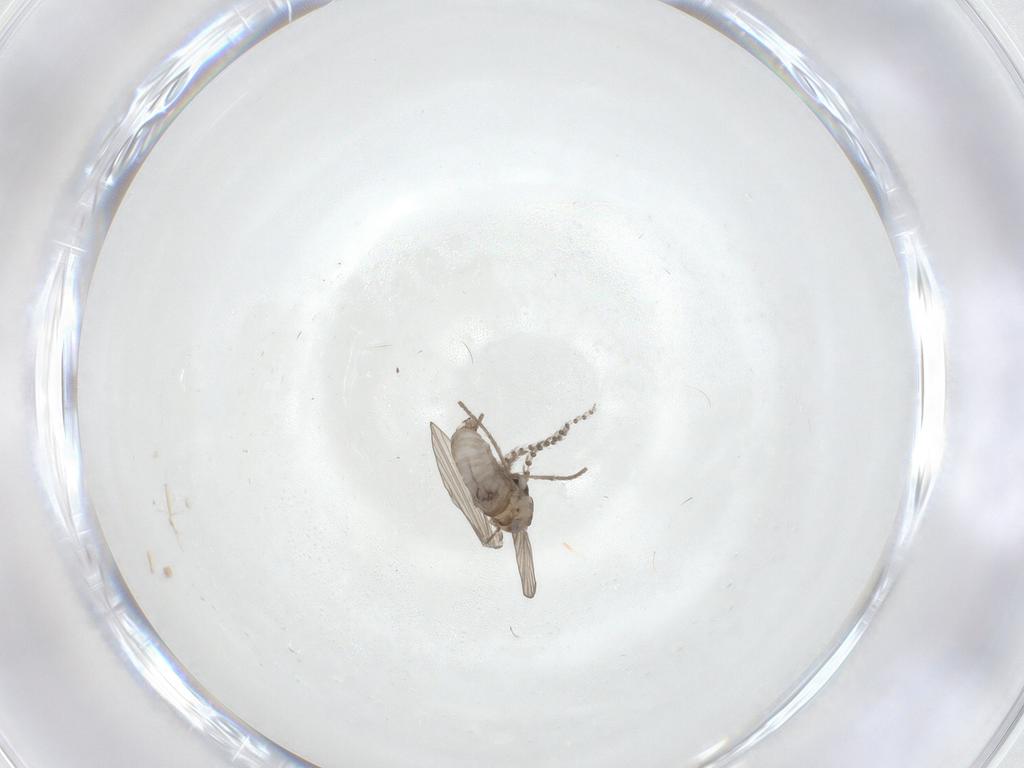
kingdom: Animalia
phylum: Arthropoda
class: Insecta
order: Diptera
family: Psychodidae
